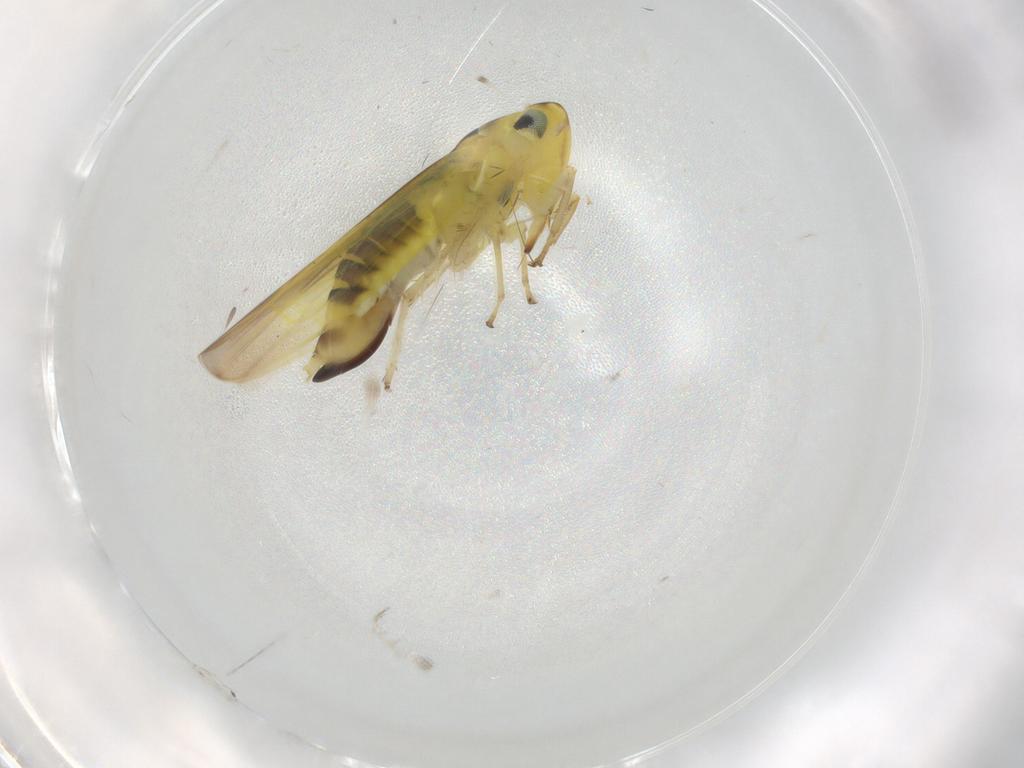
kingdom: Animalia
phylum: Arthropoda
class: Insecta
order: Hemiptera
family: Cicadellidae
